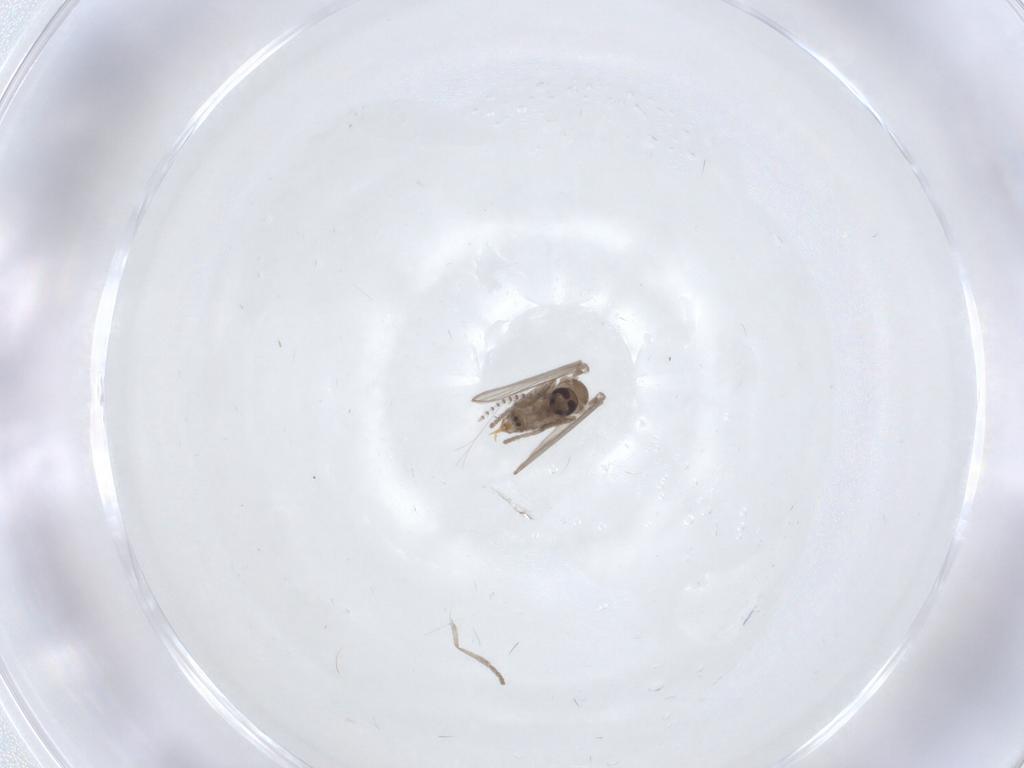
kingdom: Animalia
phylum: Arthropoda
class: Insecta
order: Diptera
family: Psychodidae
